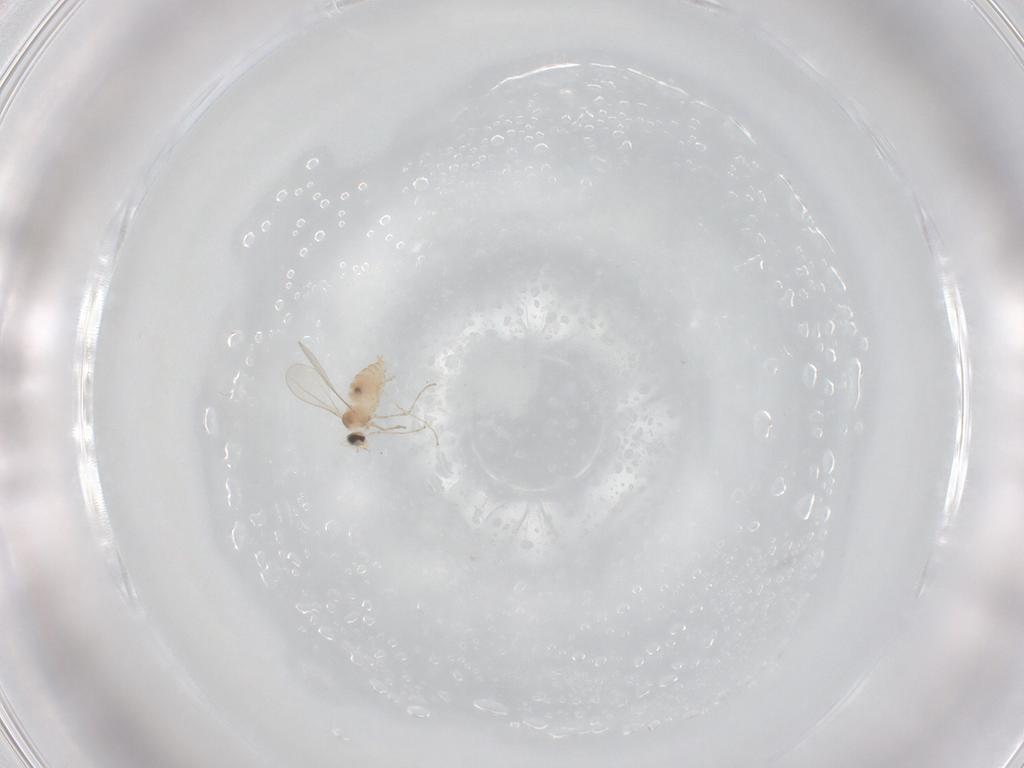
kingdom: Animalia
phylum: Arthropoda
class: Insecta
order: Diptera
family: Cecidomyiidae
